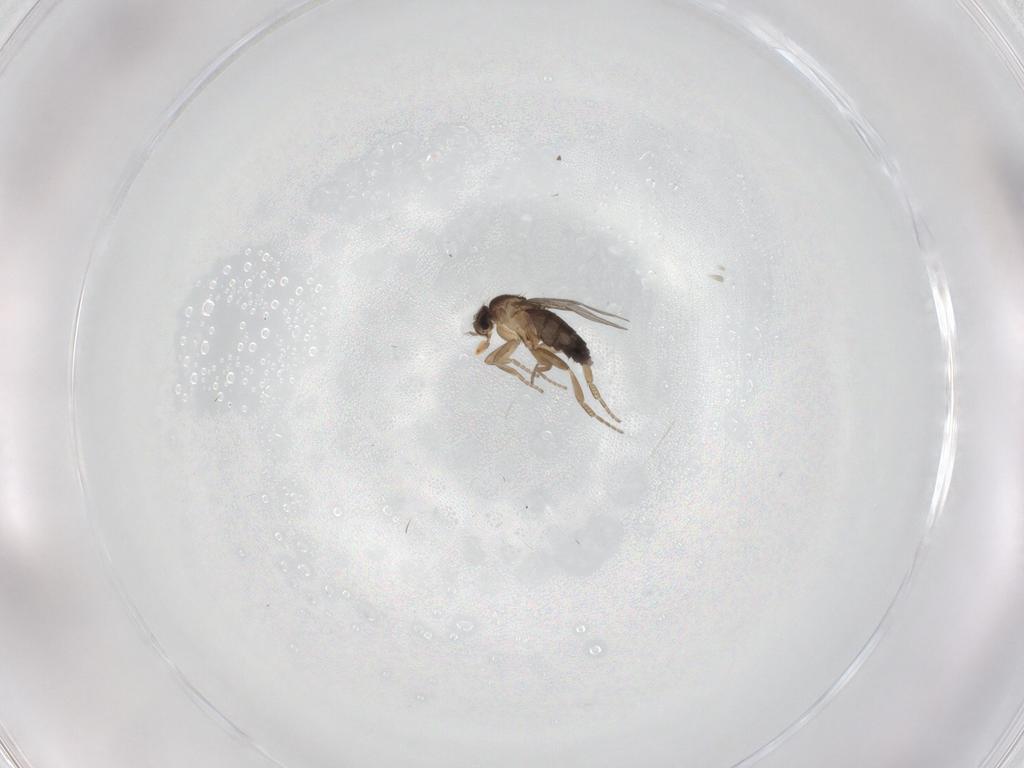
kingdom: Animalia
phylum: Arthropoda
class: Insecta
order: Diptera
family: Phoridae
